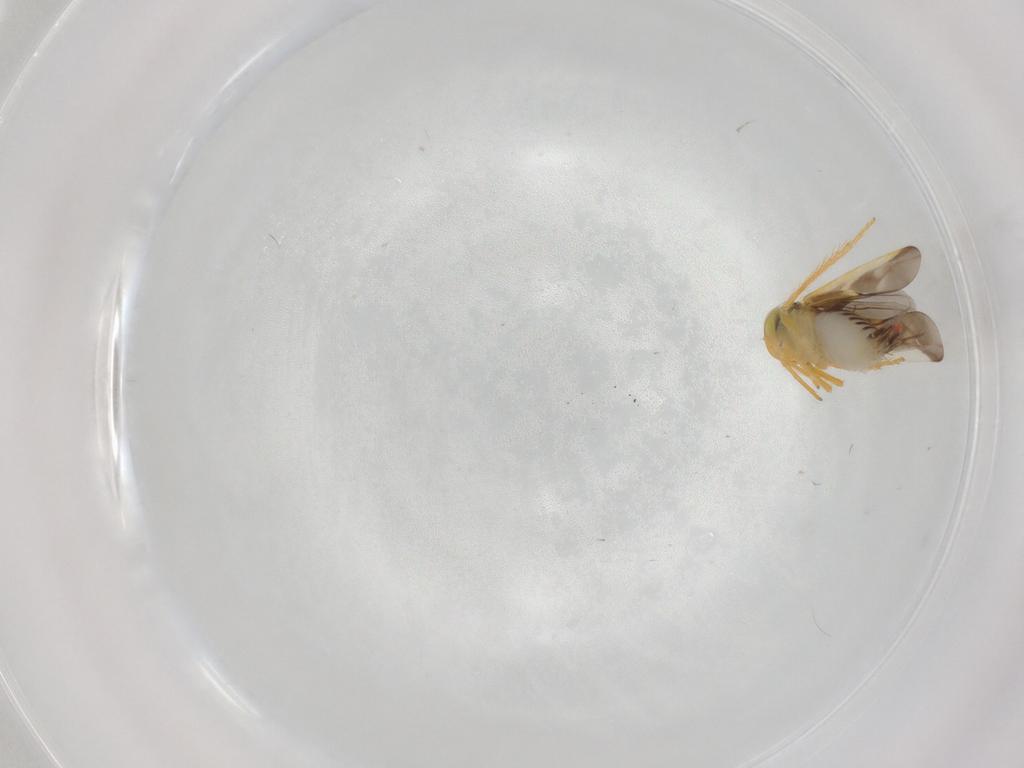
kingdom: Animalia
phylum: Arthropoda
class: Insecta
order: Hemiptera
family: Cicadellidae
